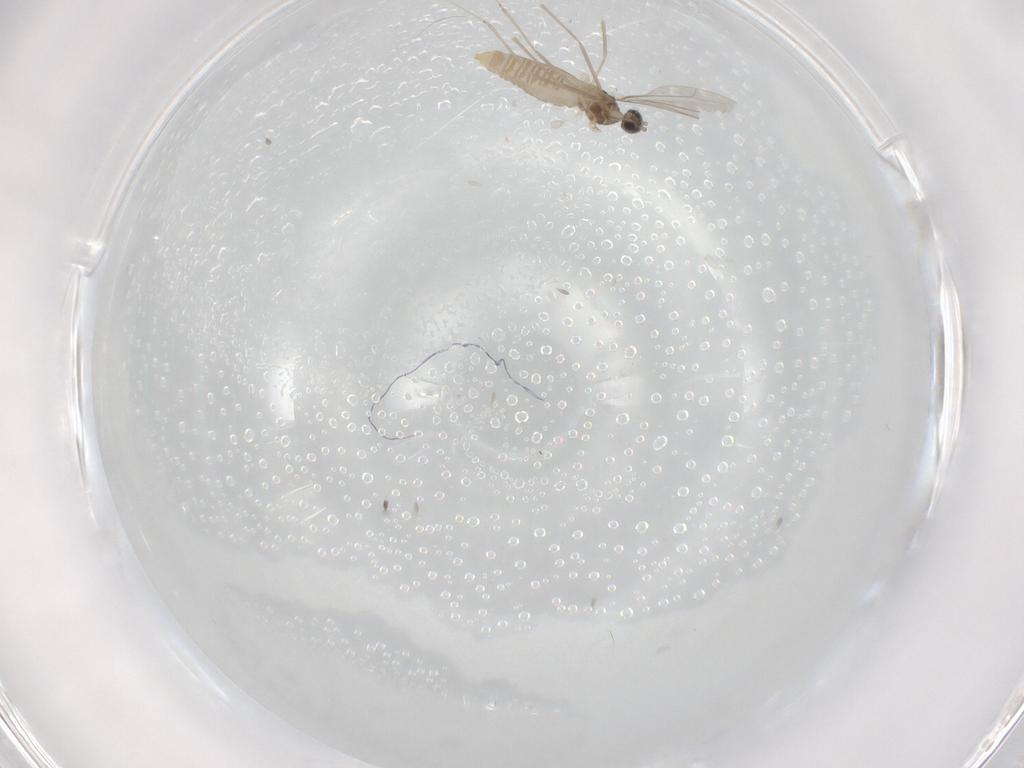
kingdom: Animalia
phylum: Arthropoda
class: Insecta
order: Diptera
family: Cecidomyiidae
